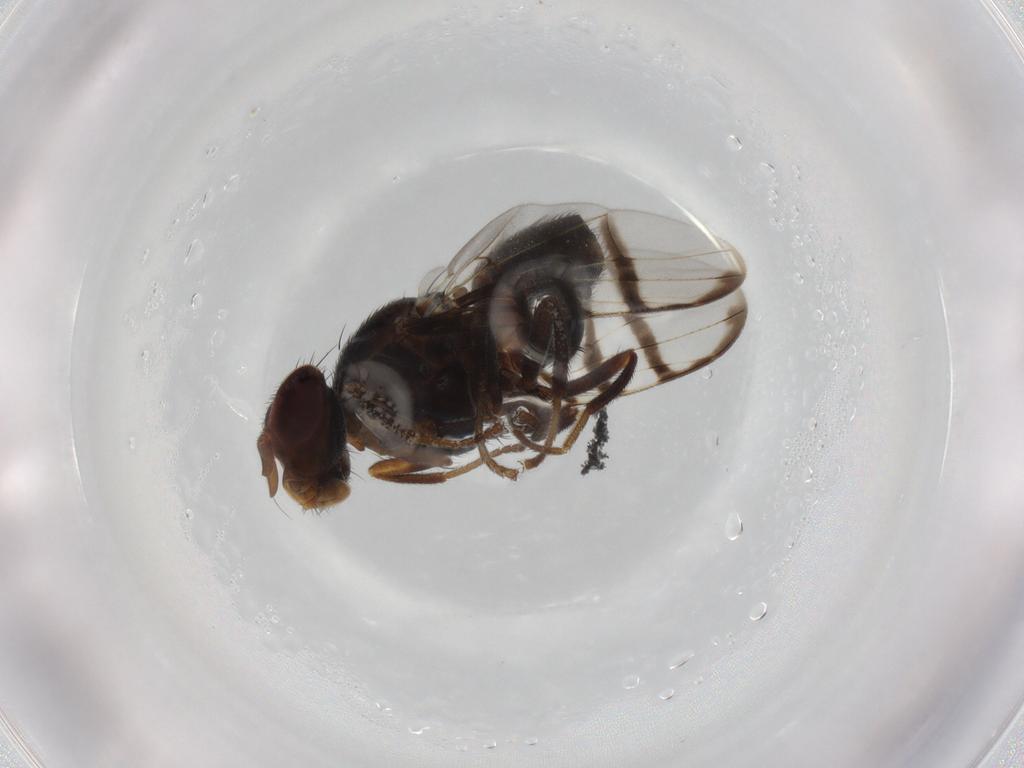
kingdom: Animalia
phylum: Arthropoda
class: Insecta
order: Diptera
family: Platystomatidae
